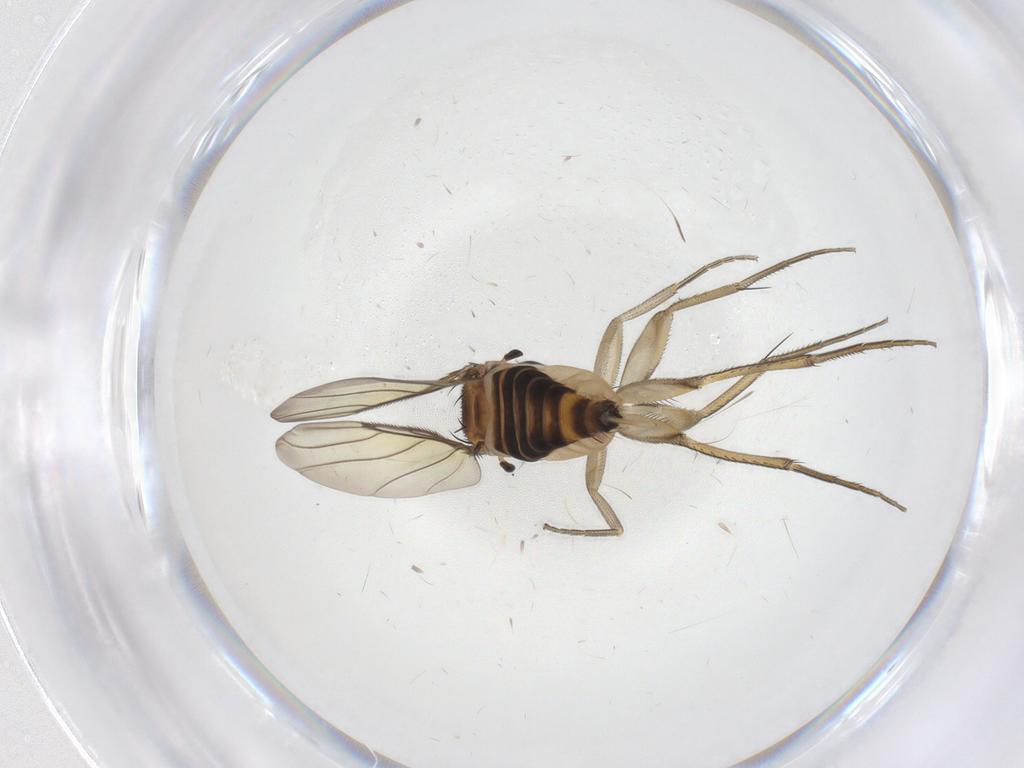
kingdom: Animalia
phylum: Arthropoda
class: Insecta
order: Diptera
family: Phoridae
